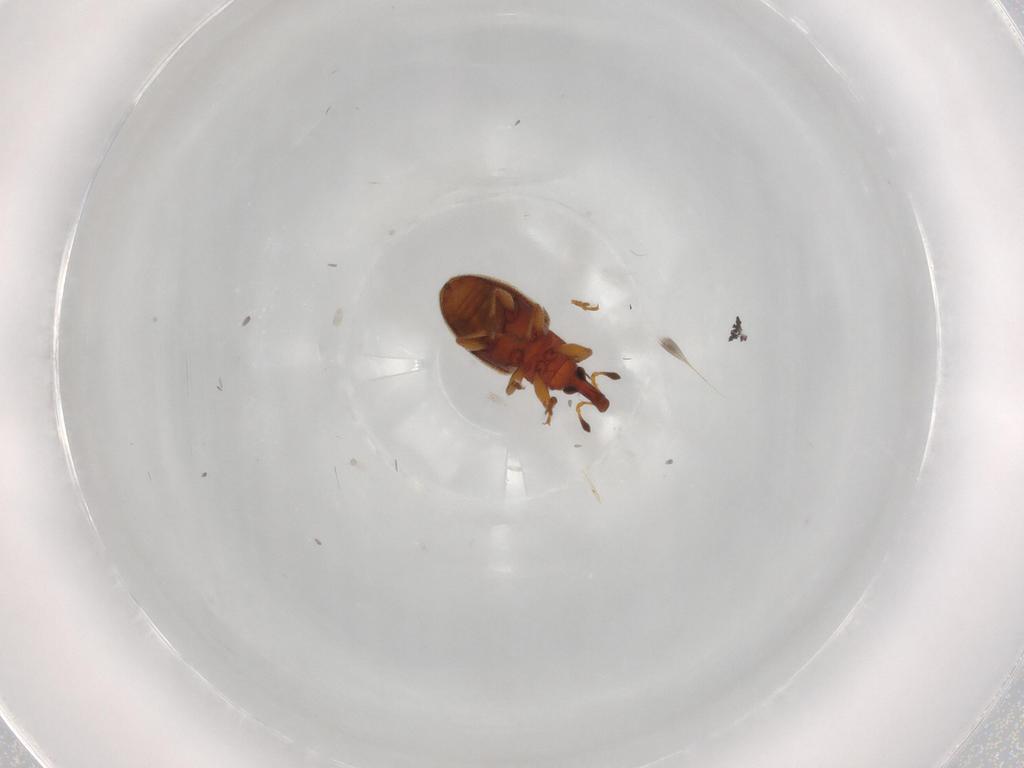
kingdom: Animalia
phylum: Arthropoda
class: Insecta
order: Coleoptera
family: Curculionidae
